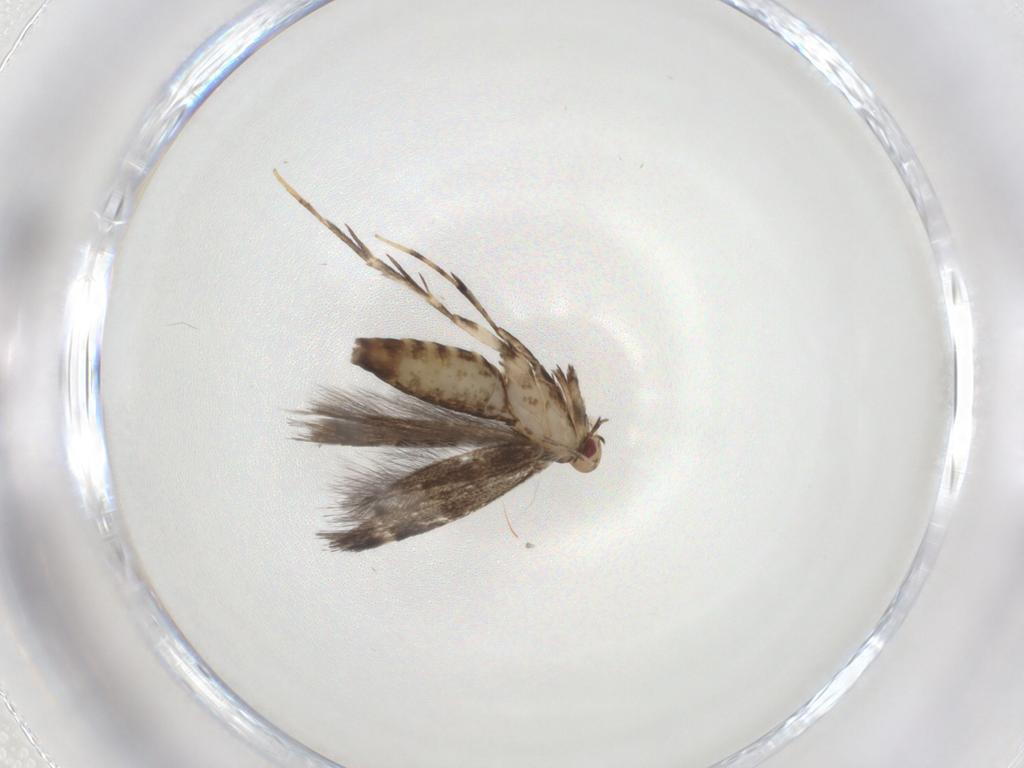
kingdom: Animalia
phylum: Arthropoda
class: Insecta
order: Lepidoptera
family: Gracillariidae
